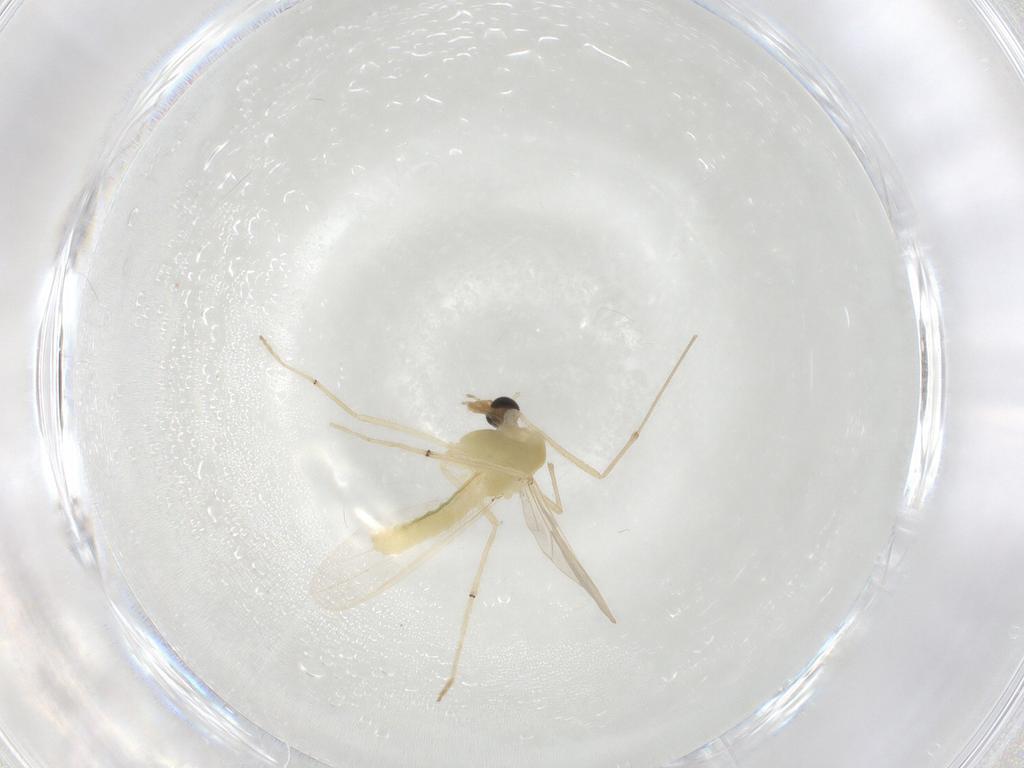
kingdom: Animalia
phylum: Arthropoda
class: Insecta
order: Diptera
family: Chironomidae
